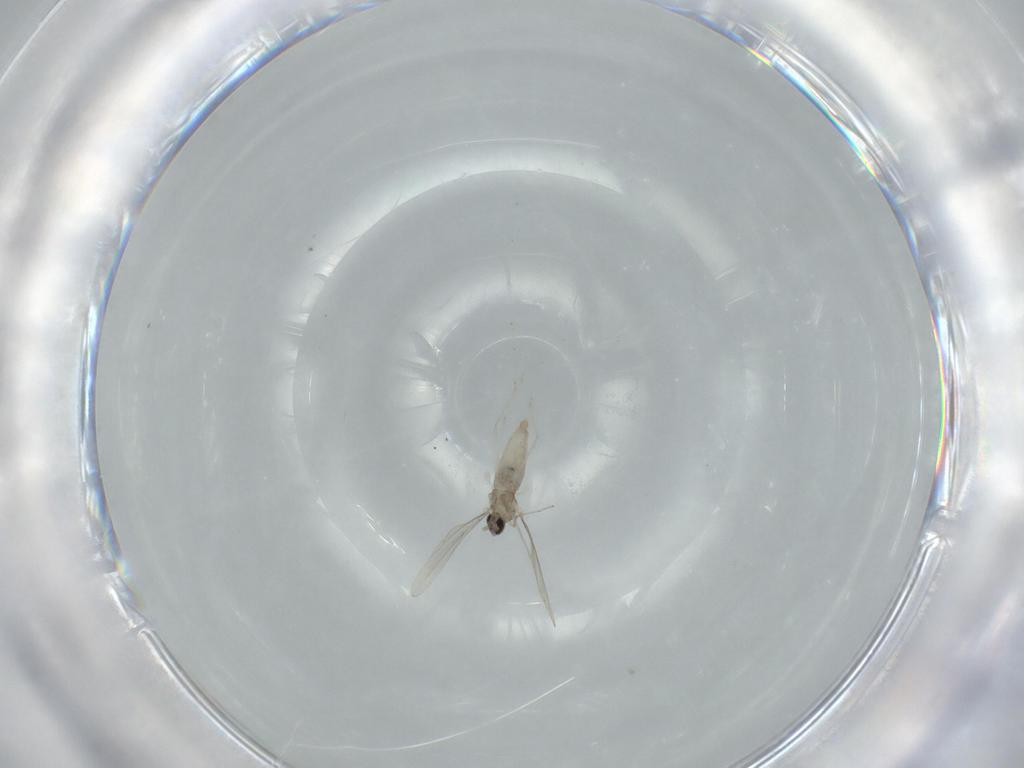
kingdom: Animalia
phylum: Arthropoda
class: Insecta
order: Diptera
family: Cecidomyiidae
